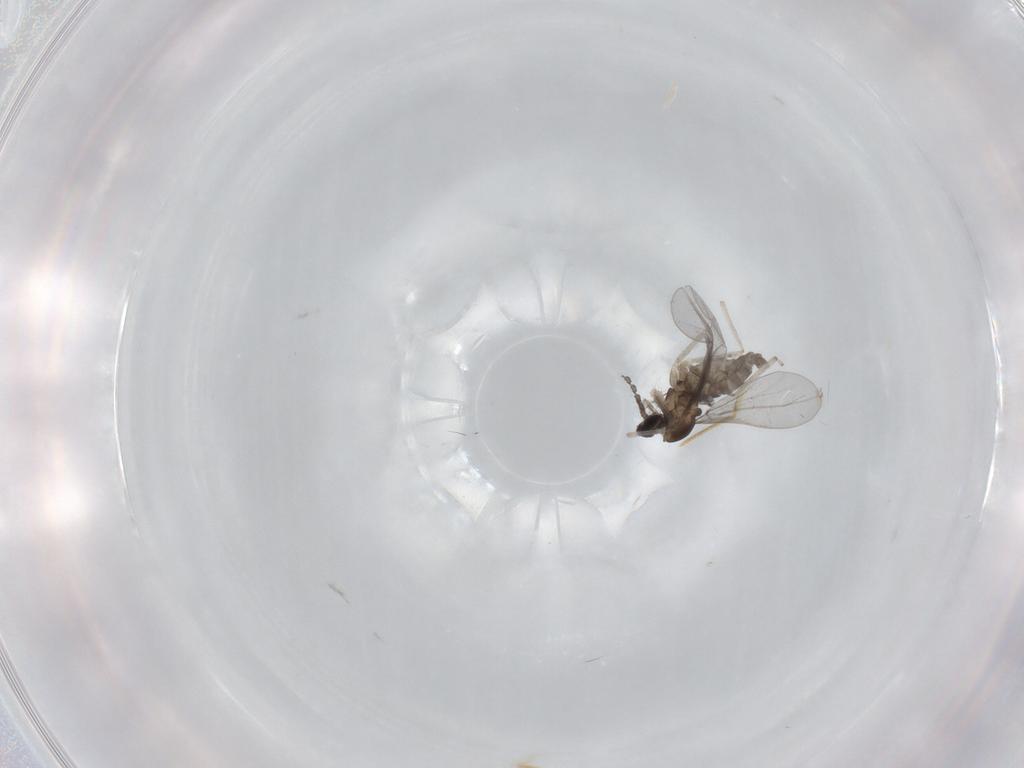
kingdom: Animalia
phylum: Arthropoda
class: Insecta
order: Diptera
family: Cecidomyiidae
